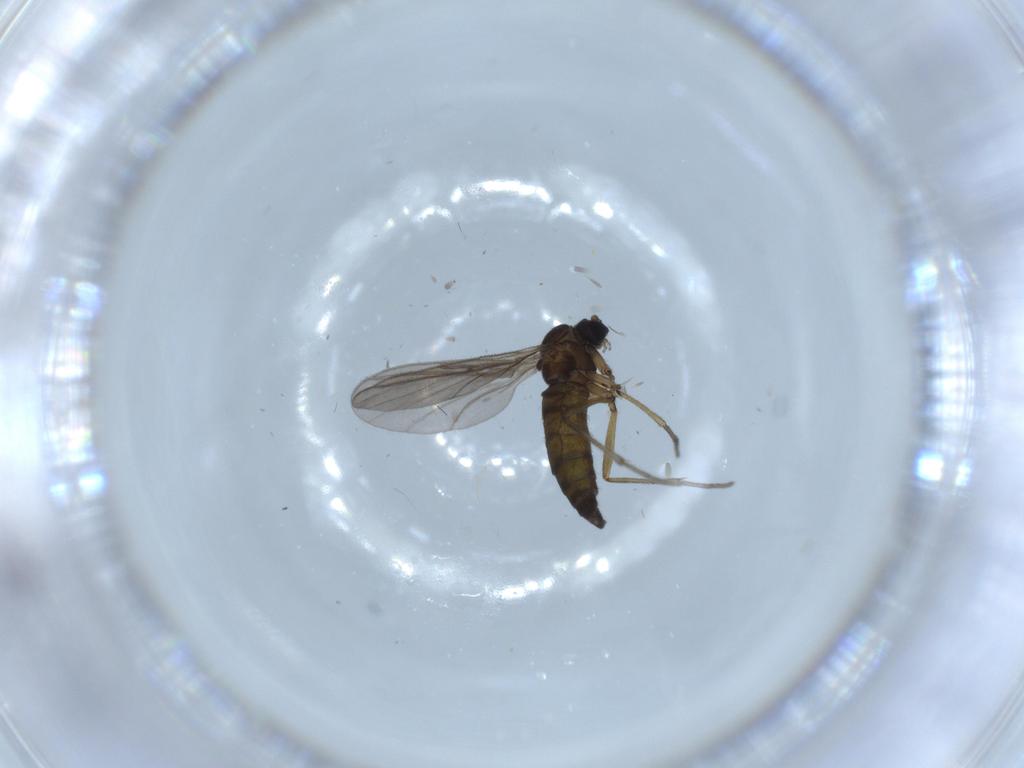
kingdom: Animalia
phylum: Arthropoda
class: Insecta
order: Diptera
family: Sciaridae
